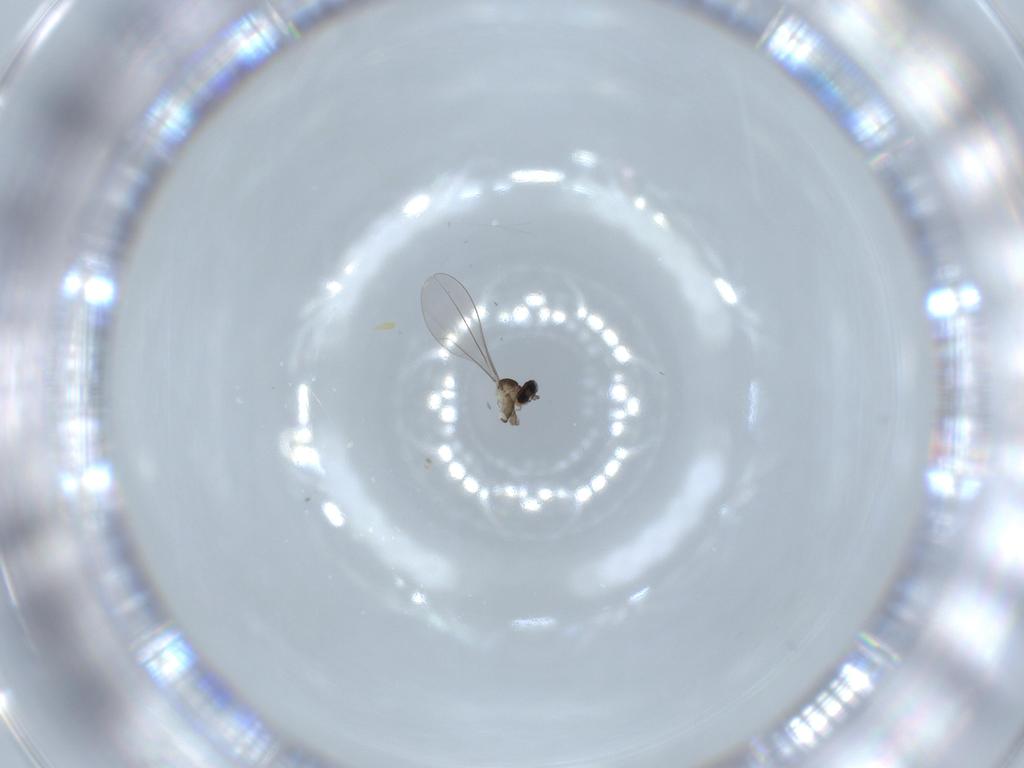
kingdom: Animalia
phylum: Arthropoda
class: Insecta
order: Diptera
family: Cecidomyiidae
